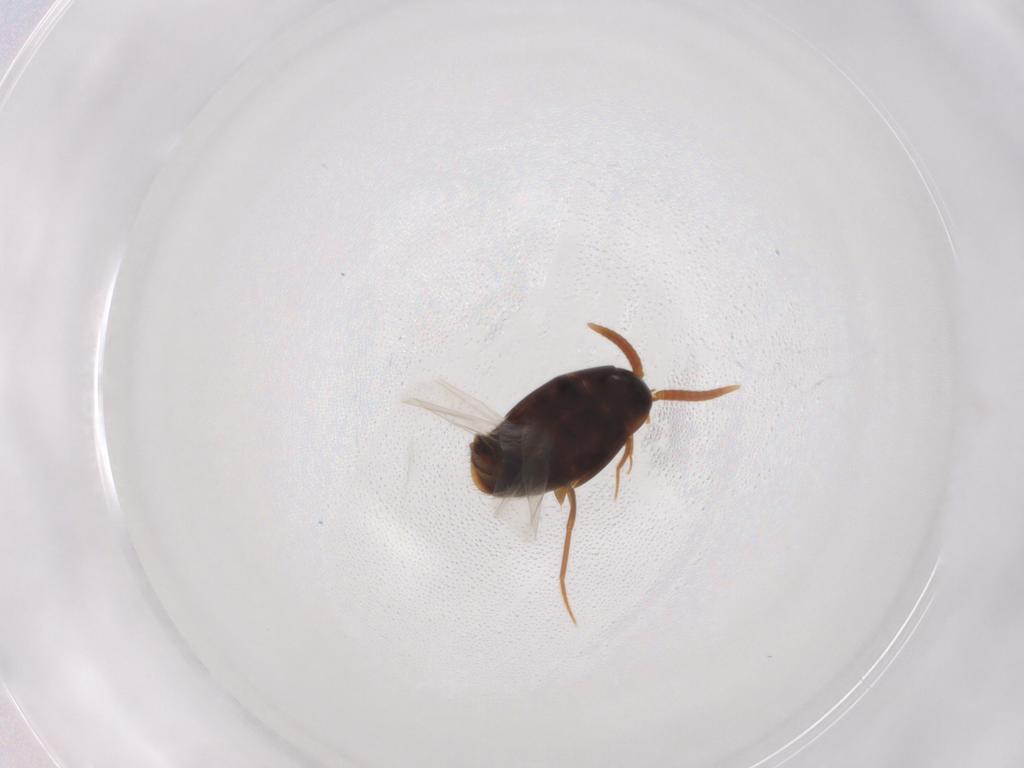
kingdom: Animalia
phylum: Arthropoda
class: Insecta
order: Coleoptera
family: Staphylinidae
